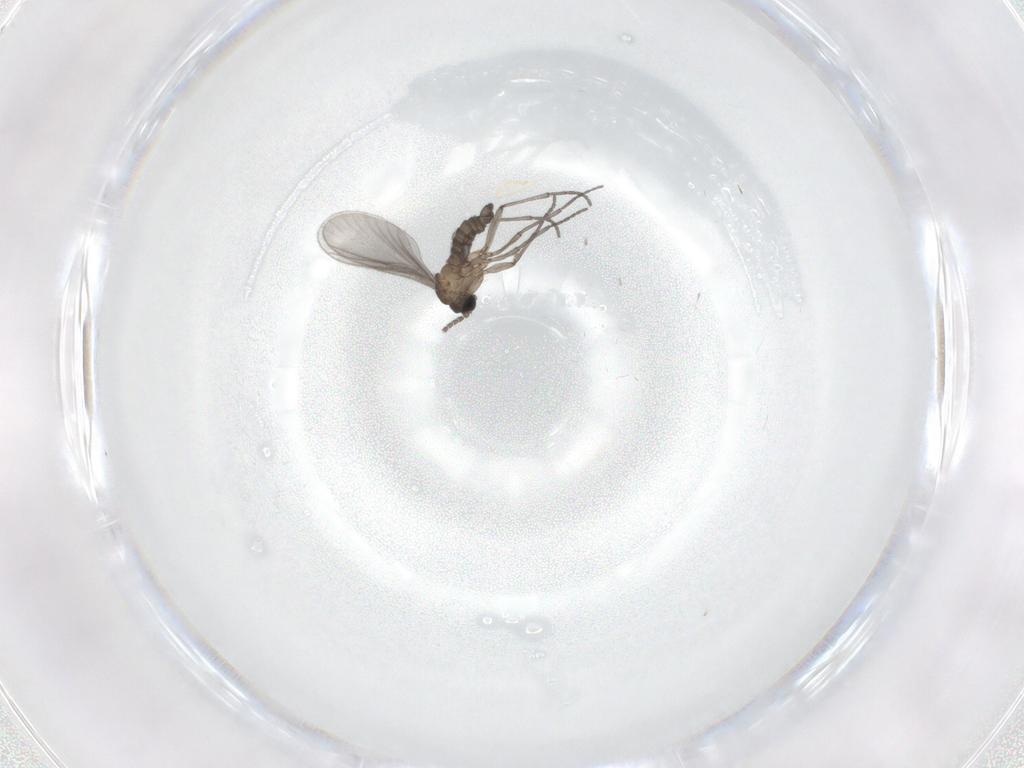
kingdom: Animalia
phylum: Arthropoda
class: Insecta
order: Diptera
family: Sciaridae
